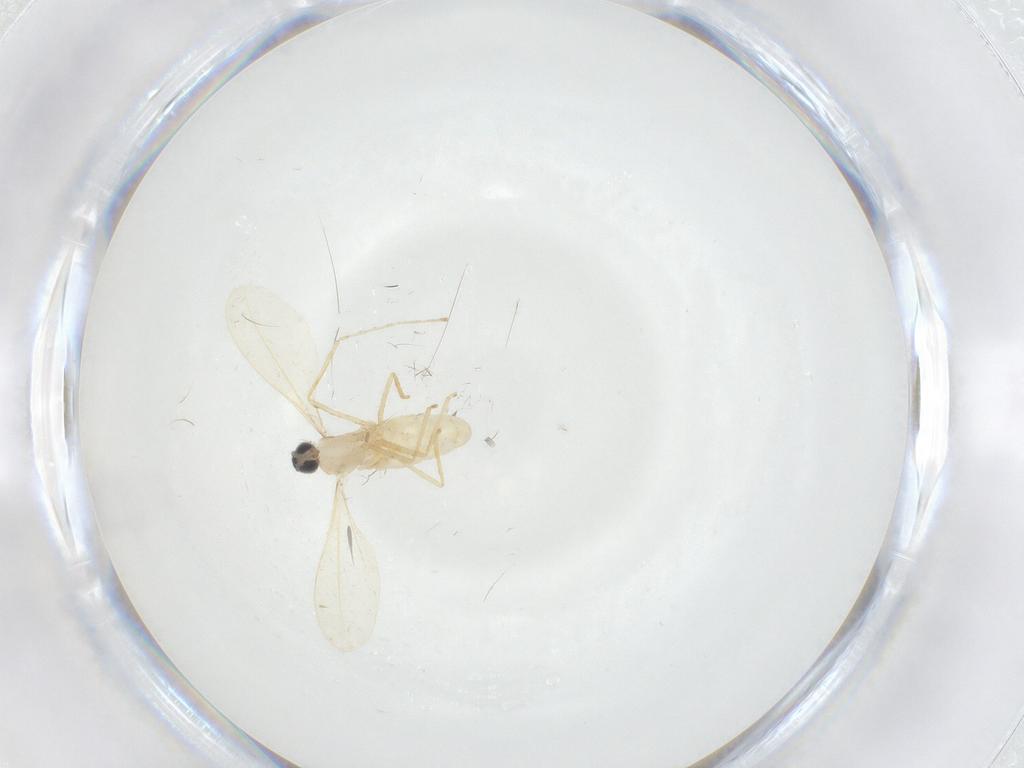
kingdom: Animalia
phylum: Arthropoda
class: Insecta
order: Diptera
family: Cecidomyiidae
